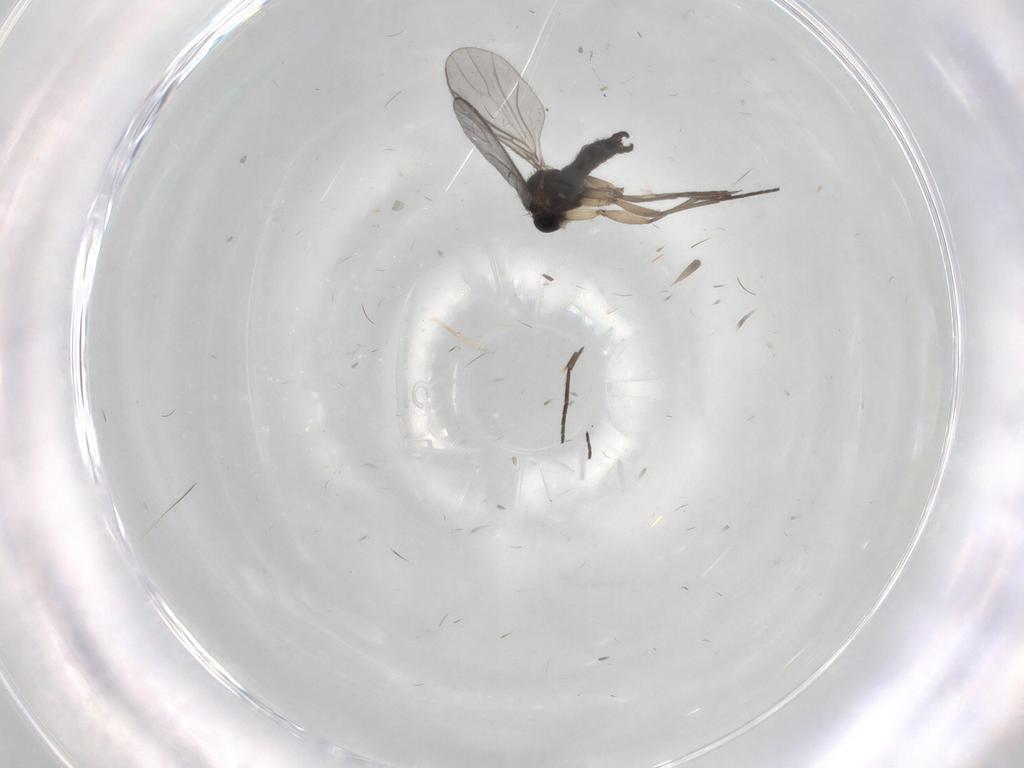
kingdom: Animalia
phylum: Arthropoda
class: Insecta
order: Diptera
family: Sciaridae
